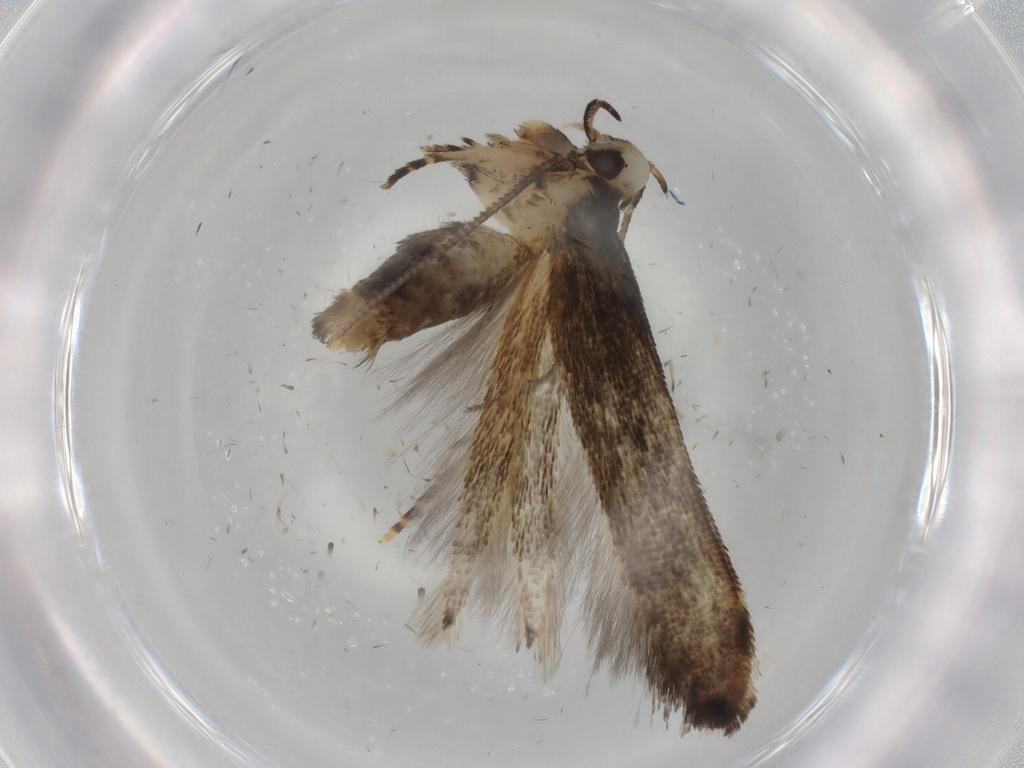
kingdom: Animalia
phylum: Arthropoda
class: Insecta
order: Lepidoptera
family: Cosmopterigidae
